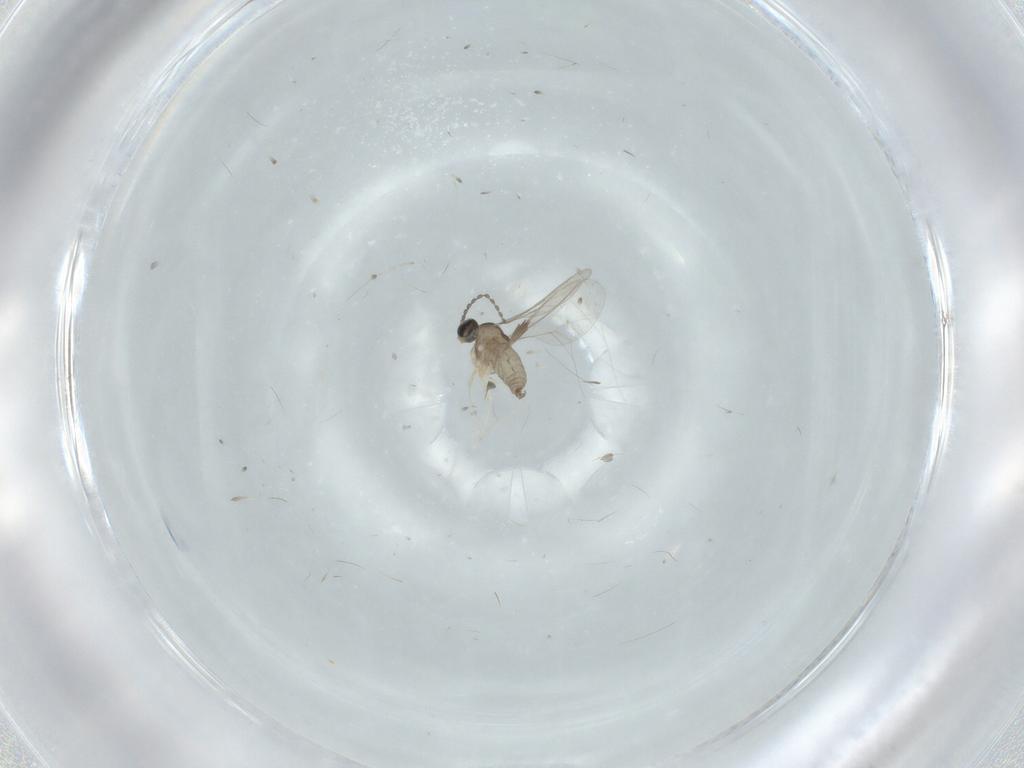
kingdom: Animalia
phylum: Arthropoda
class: Insecta
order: Diptera
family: Cecidomyiidae
